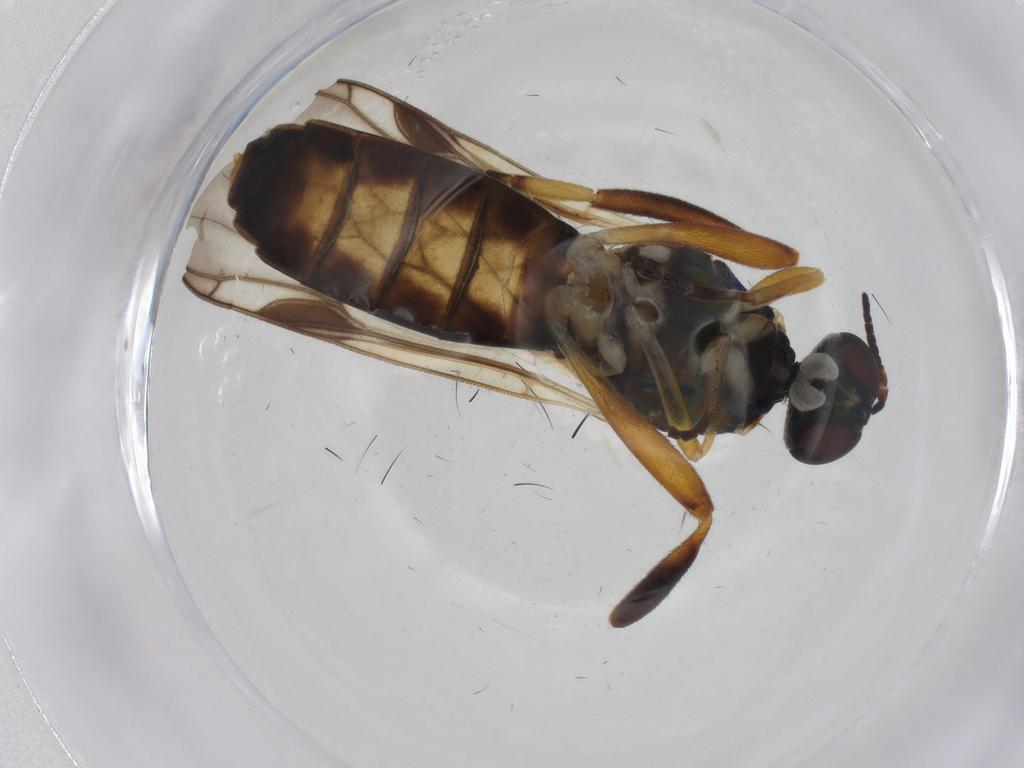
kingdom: Animalia
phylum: Arthropoda
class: Insecta
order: Diptera
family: Stratiomyidae
